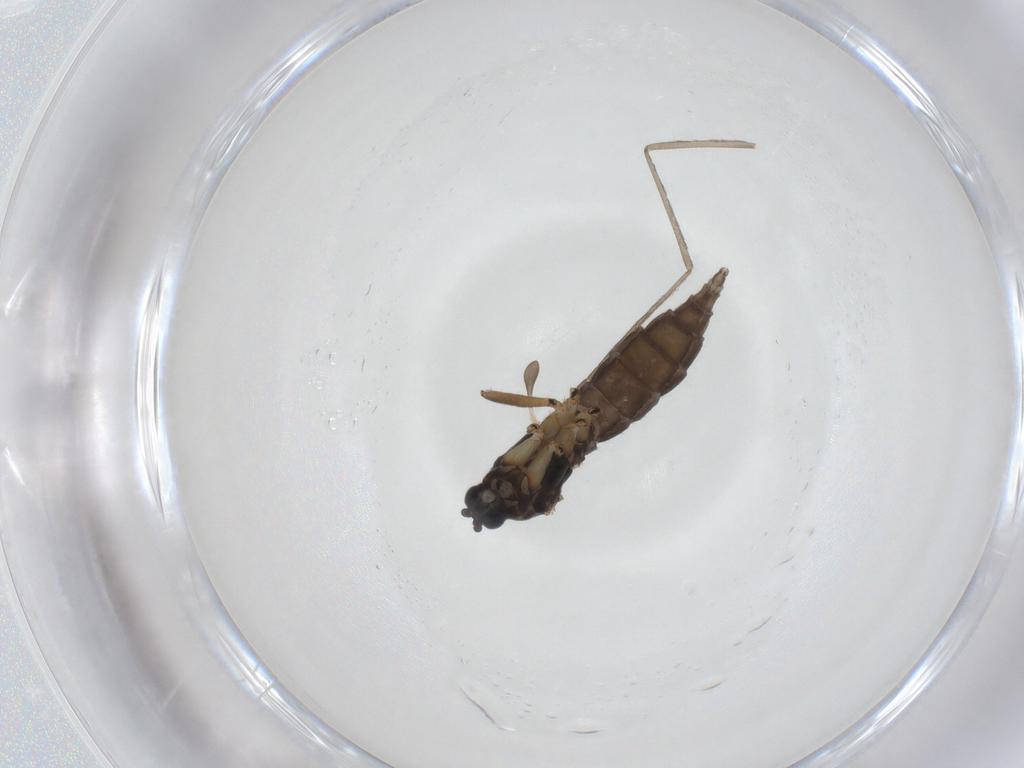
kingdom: Animalia
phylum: Arthropoda
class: Insecta
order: Diptera
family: Sciaridae
